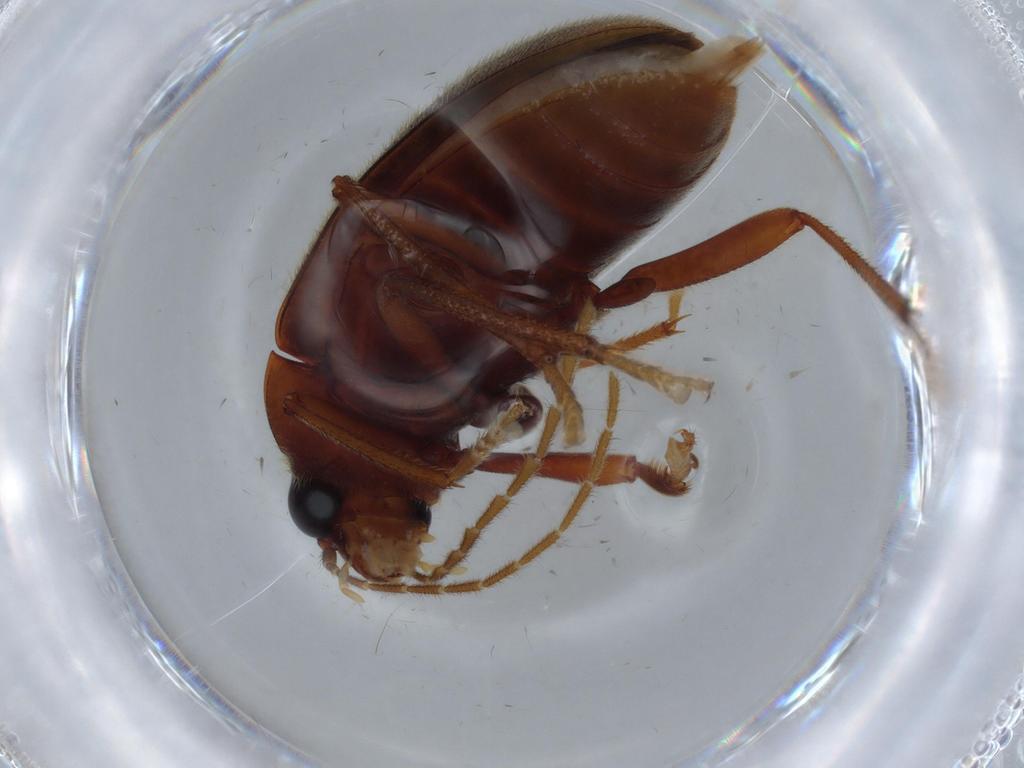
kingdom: Animalia
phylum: Arthropoda
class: Insecta
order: Coleoptera
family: Ptilodactylidae
